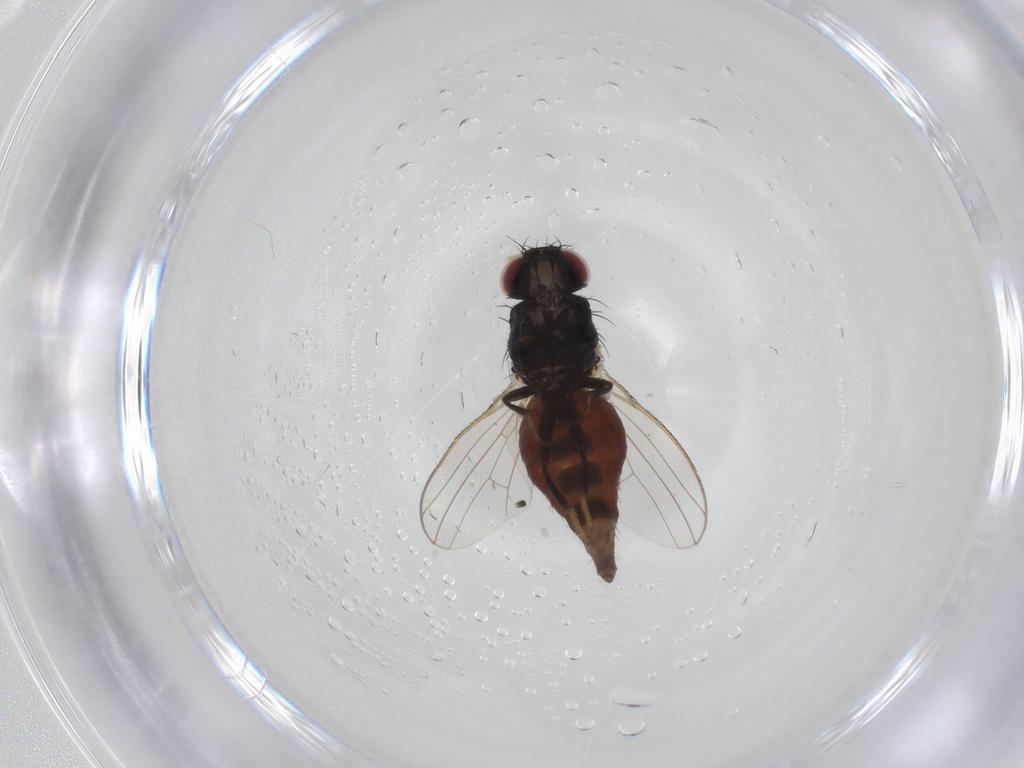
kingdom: Animalia
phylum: Arthropoda
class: Insecta
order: Diptera
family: Carnidae
